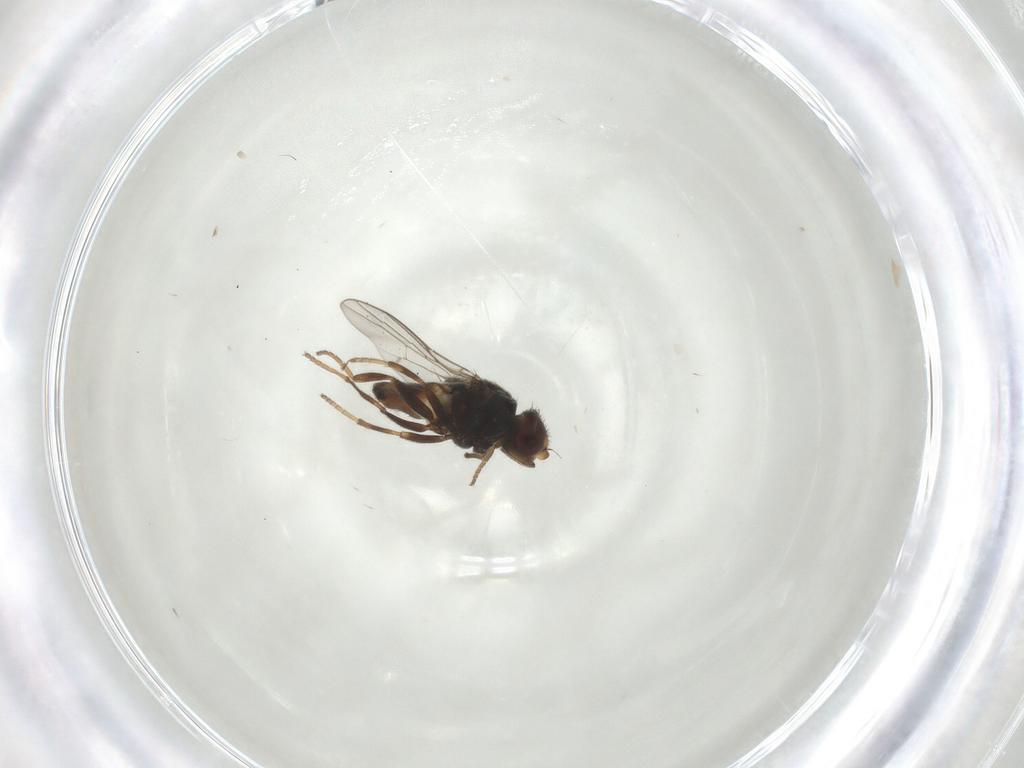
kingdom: Animalia
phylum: Arthropoda
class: Insecta
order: Diptera
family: Chloropidae
